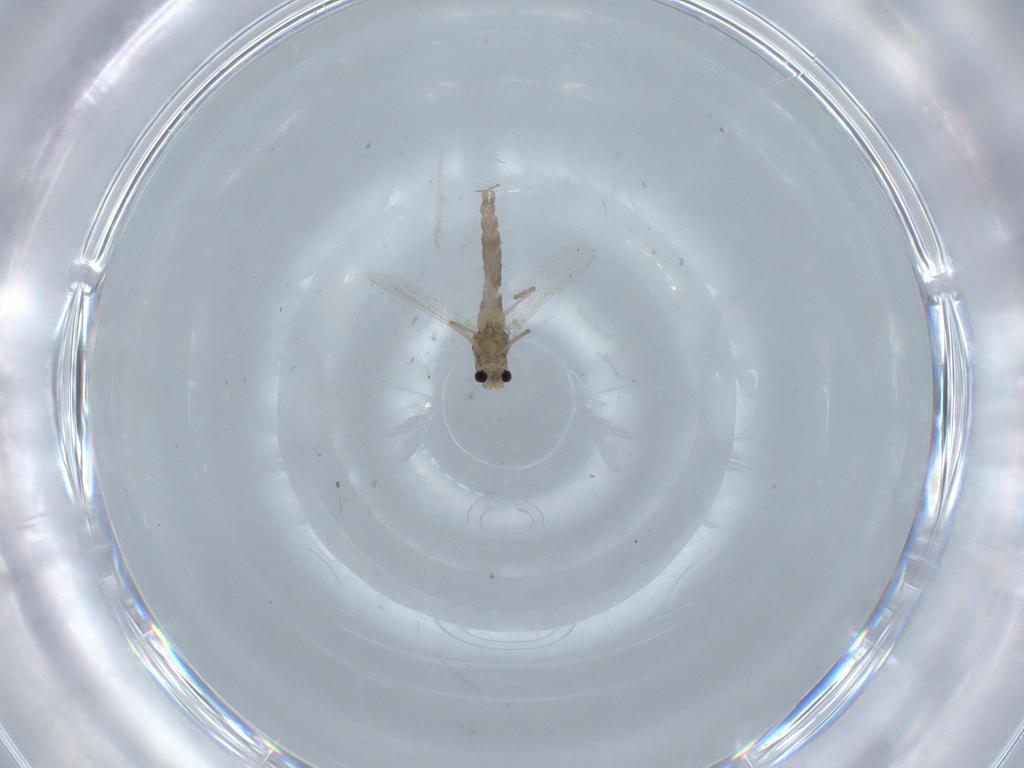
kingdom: Animalia
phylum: Arthropoda
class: Insecta
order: Diptera
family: Chironomidae
